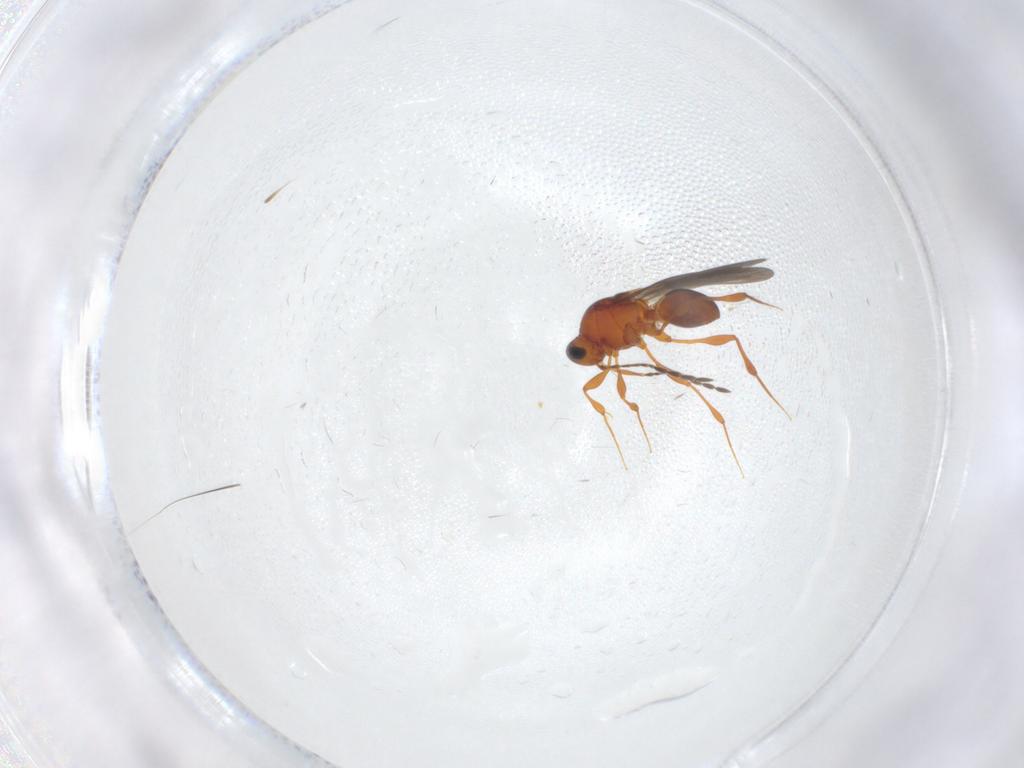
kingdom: Animalia
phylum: Arthropoda
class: Insecta
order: Hymenoptera
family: Platygastridae
